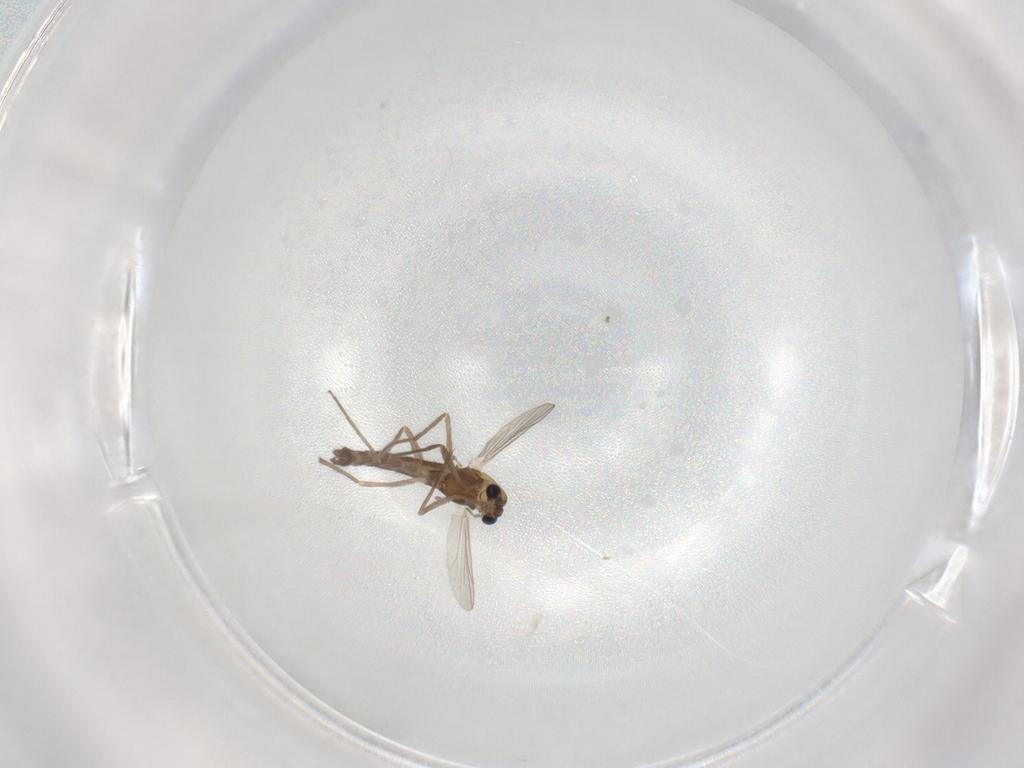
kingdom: Animalia
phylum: Arthropoda
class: Insecta
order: Diptera
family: Chironomidae
